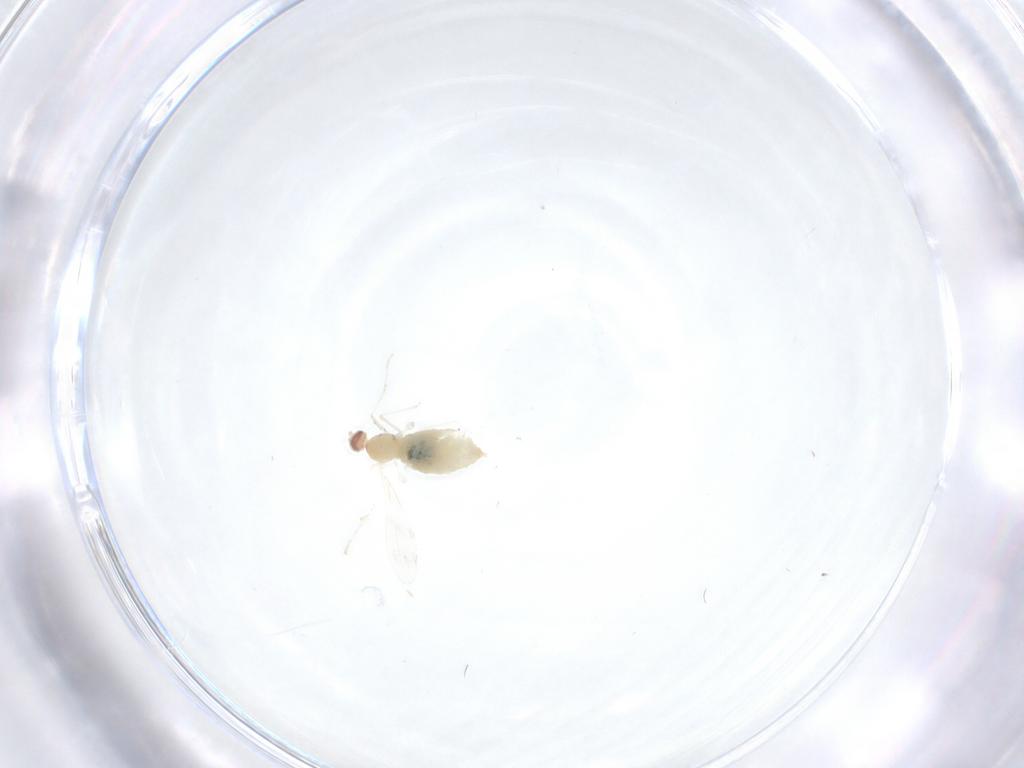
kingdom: Animalia
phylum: Arthropoda
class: Insecta
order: Diptera
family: Cecidomyiidae
